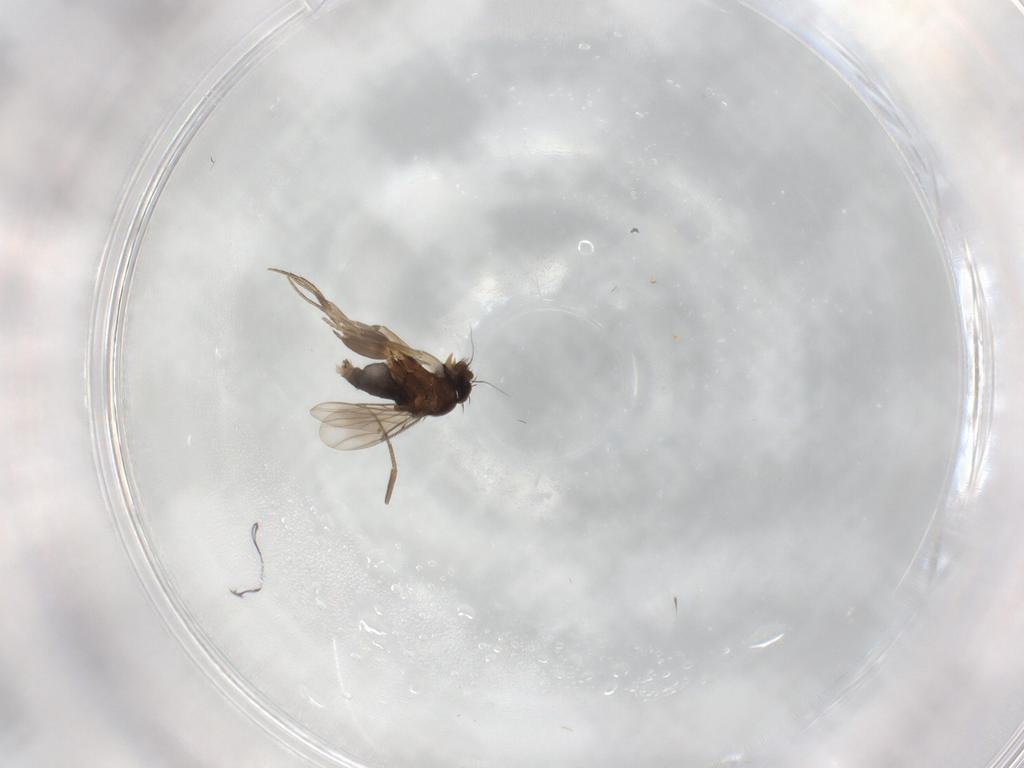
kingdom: Animalia
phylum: Arthropoda
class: Insecta
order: Diptera
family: Phoridae
